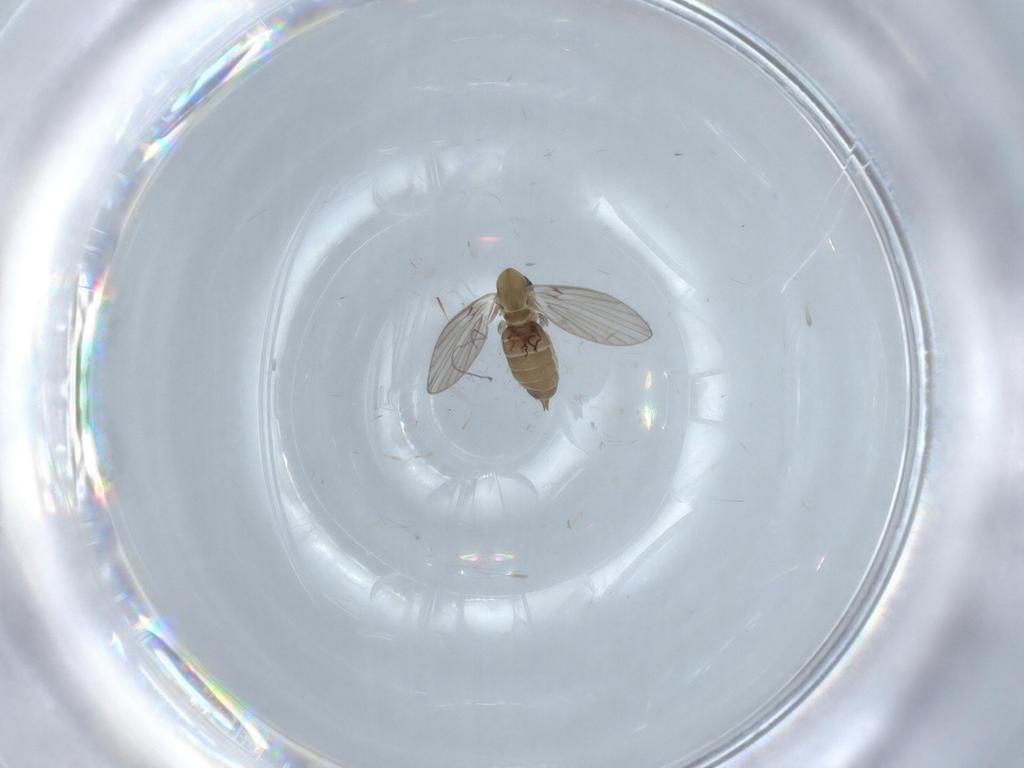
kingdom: Animalia
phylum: Arthropoda
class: Insecta
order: Diptera
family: Psychodidae
